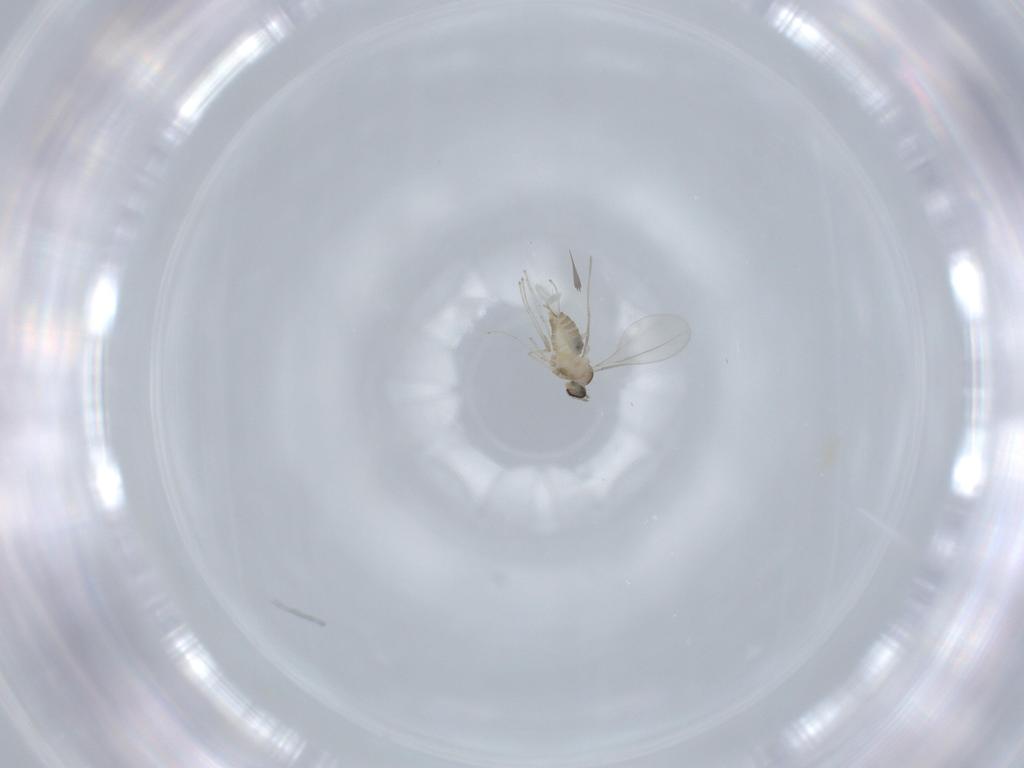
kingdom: Animalia
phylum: Arthropoda
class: Insecta
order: Diptera
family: Cecidomyiidae
